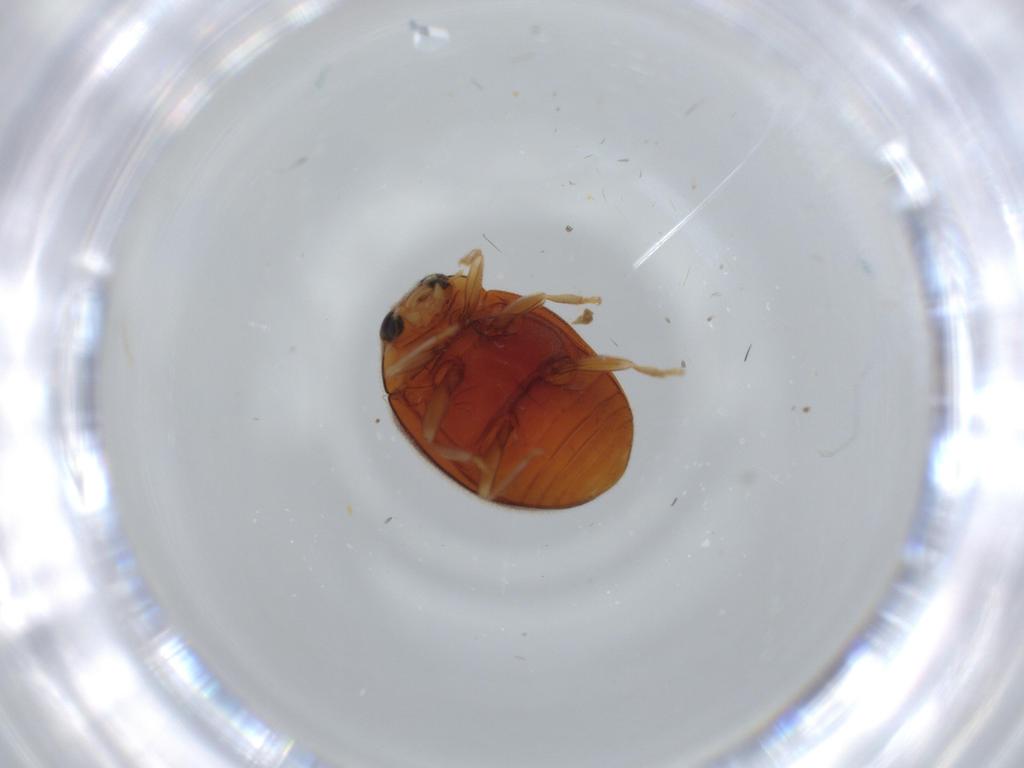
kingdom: Animalia
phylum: Arthropoda
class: Insecta
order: Coleoptera
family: Coccinellidae
